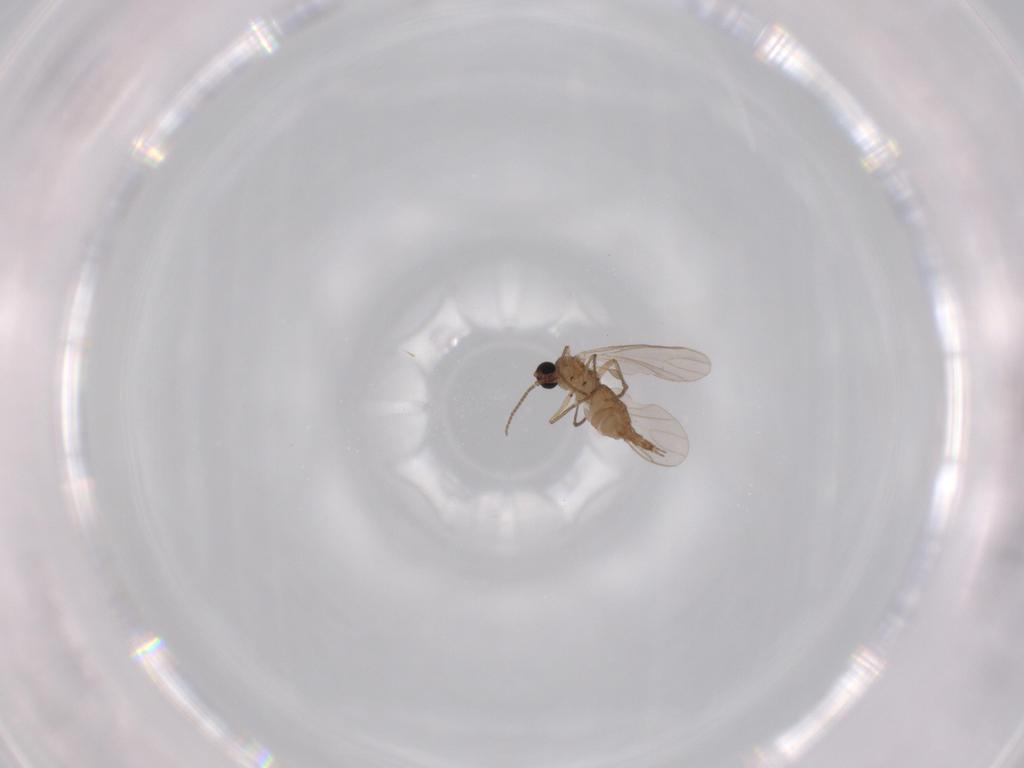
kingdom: Animalia
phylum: Arthropoda
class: Insecta
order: Diptera
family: Sciaridae
